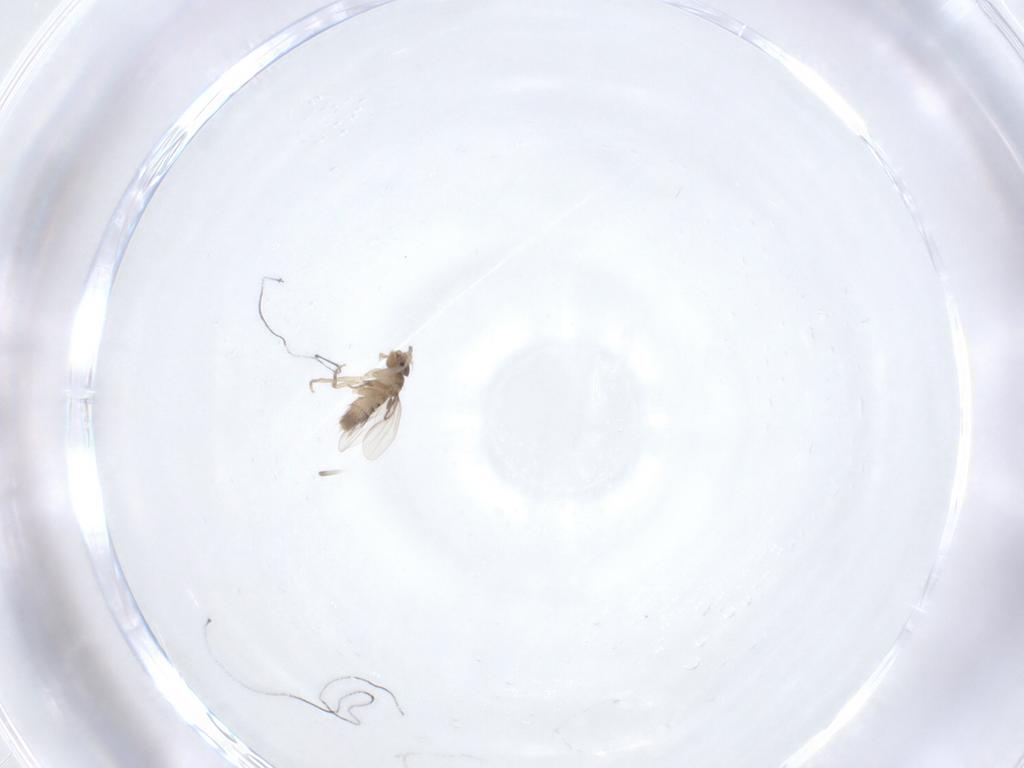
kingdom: Animalia
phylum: Arthropoda
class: Insecta
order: Diptera
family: Phoridae
